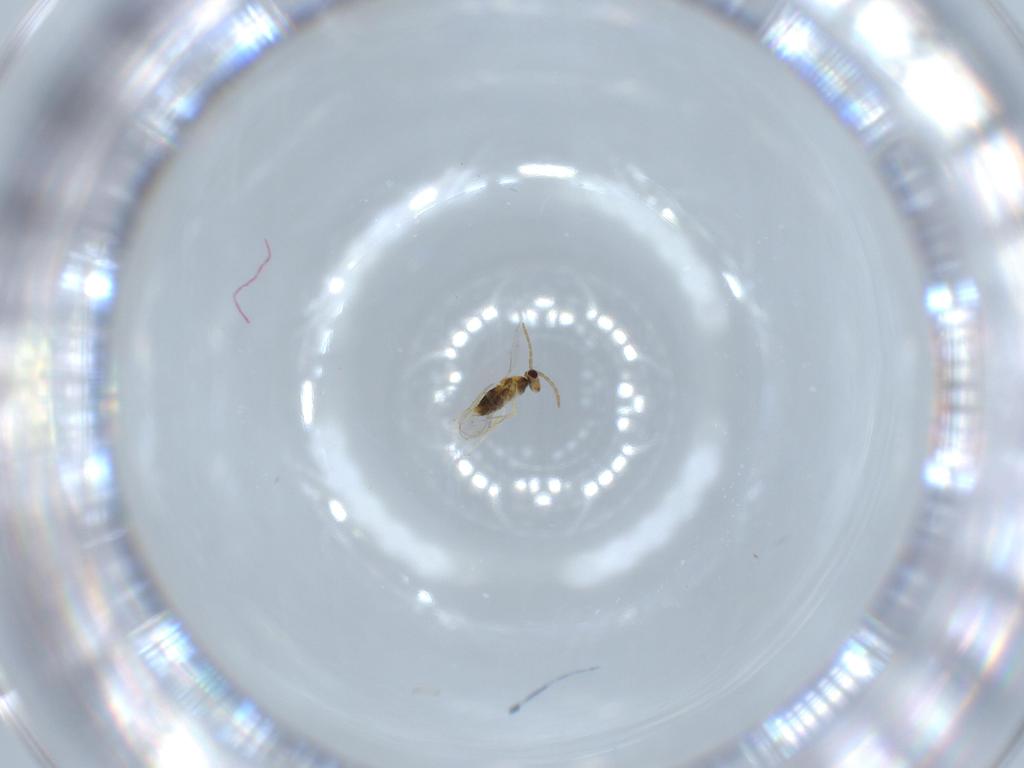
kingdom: Animalia
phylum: Arthropoda
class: Insecta
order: Hymenoptera
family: Aphelinidae
